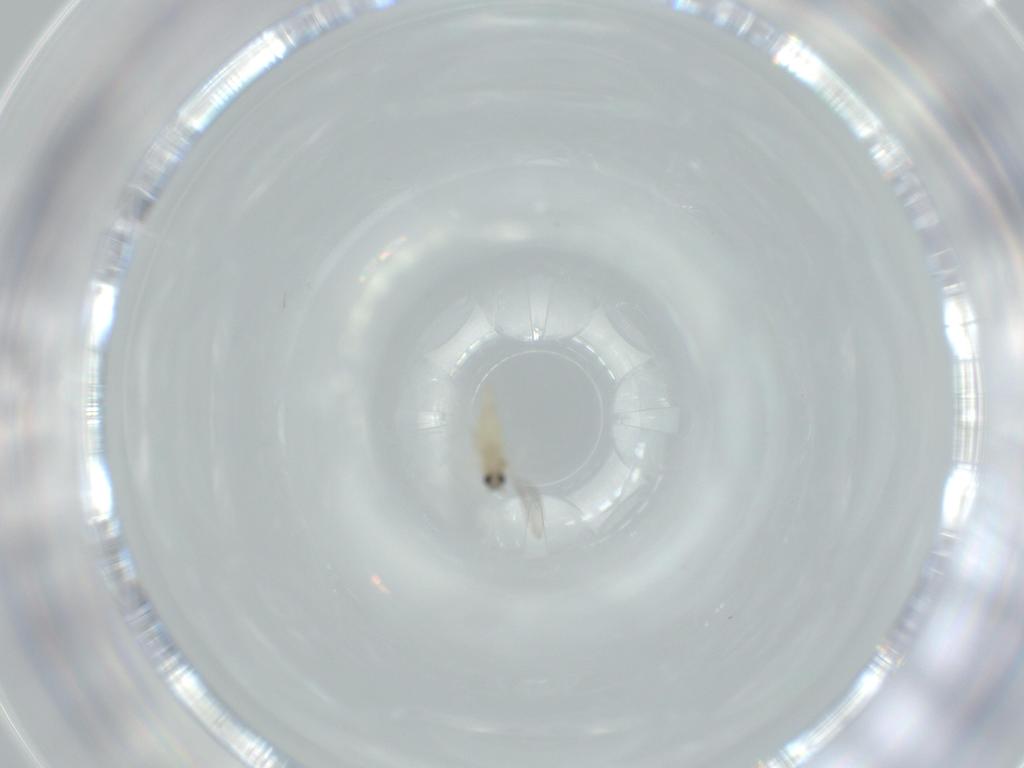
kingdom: Animalia
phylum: Arthropoda
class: Insecta
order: Diptera
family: Cecidomyiidae
